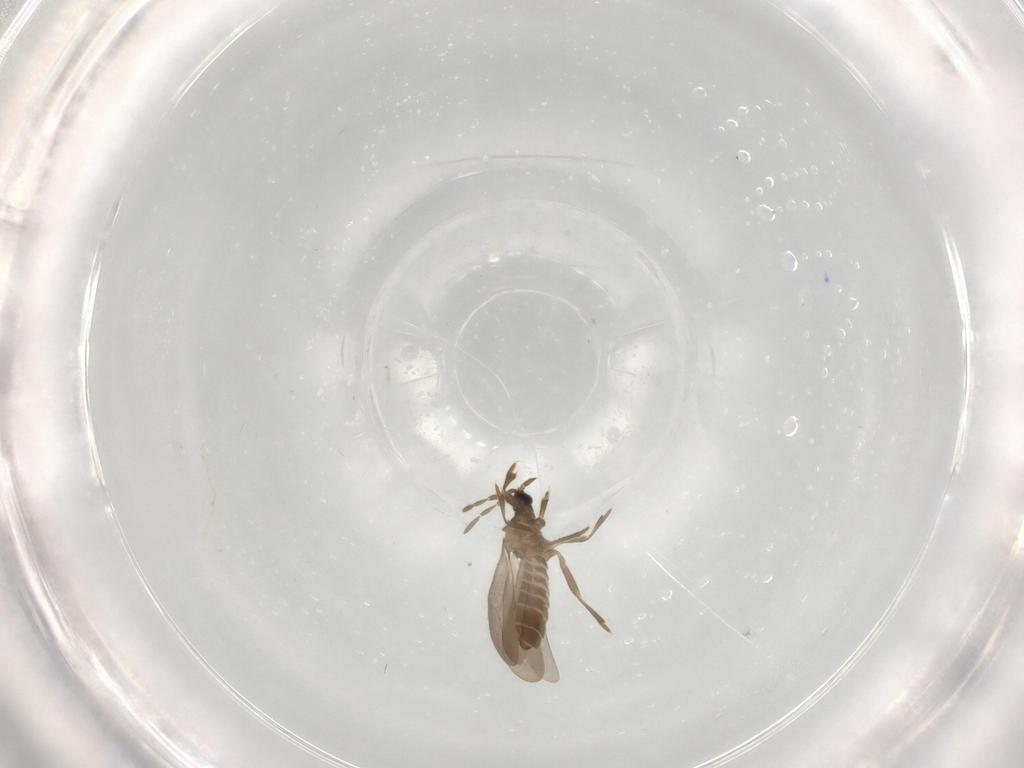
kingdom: Animalia
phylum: Arthropoda
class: Insecta
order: Hemiptera
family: Enicocephalidae
